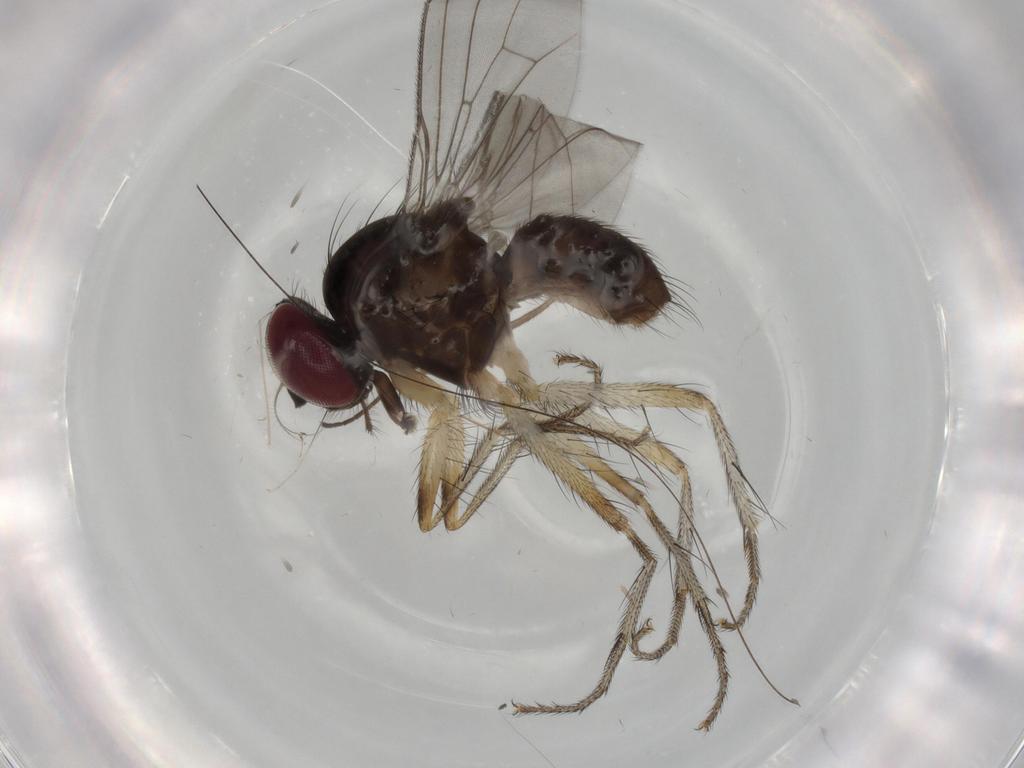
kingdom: Animalia
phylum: Arthropoda
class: Insecta
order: Diptera
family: Anthomyiidae
